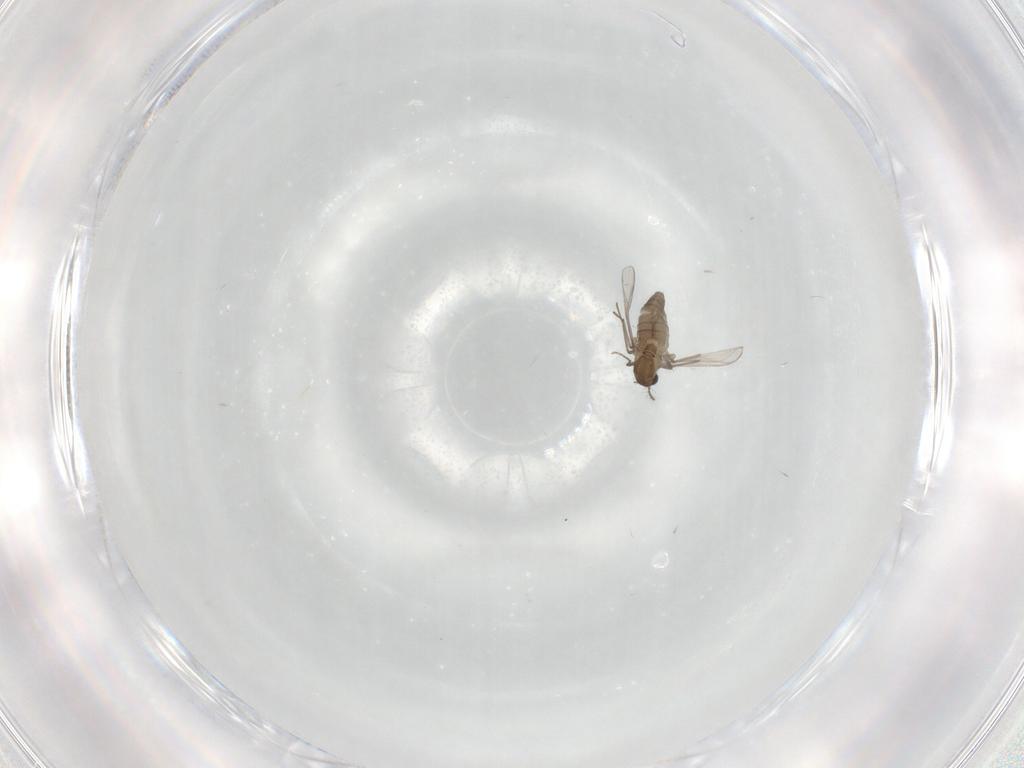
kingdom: Animalia
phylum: Arthropoda
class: Insecta
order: Diptera
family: Chironomidae
